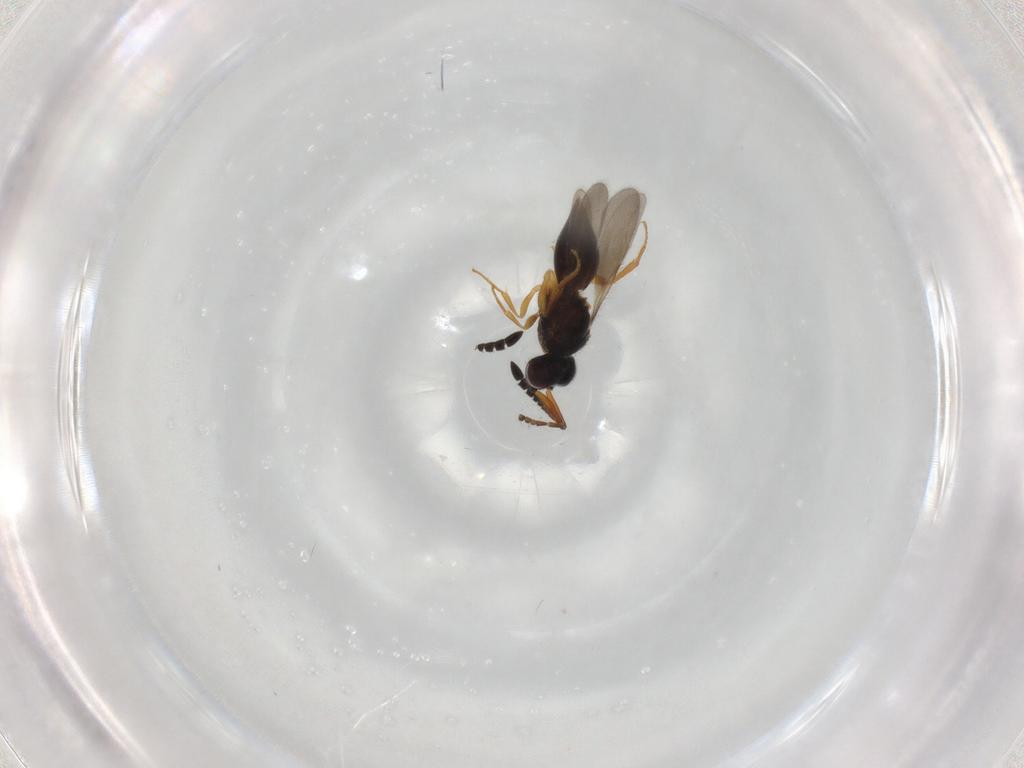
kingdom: Animalia
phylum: Arthropoda
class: Insecta
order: Hymenoptera
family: Ceraphronidae
